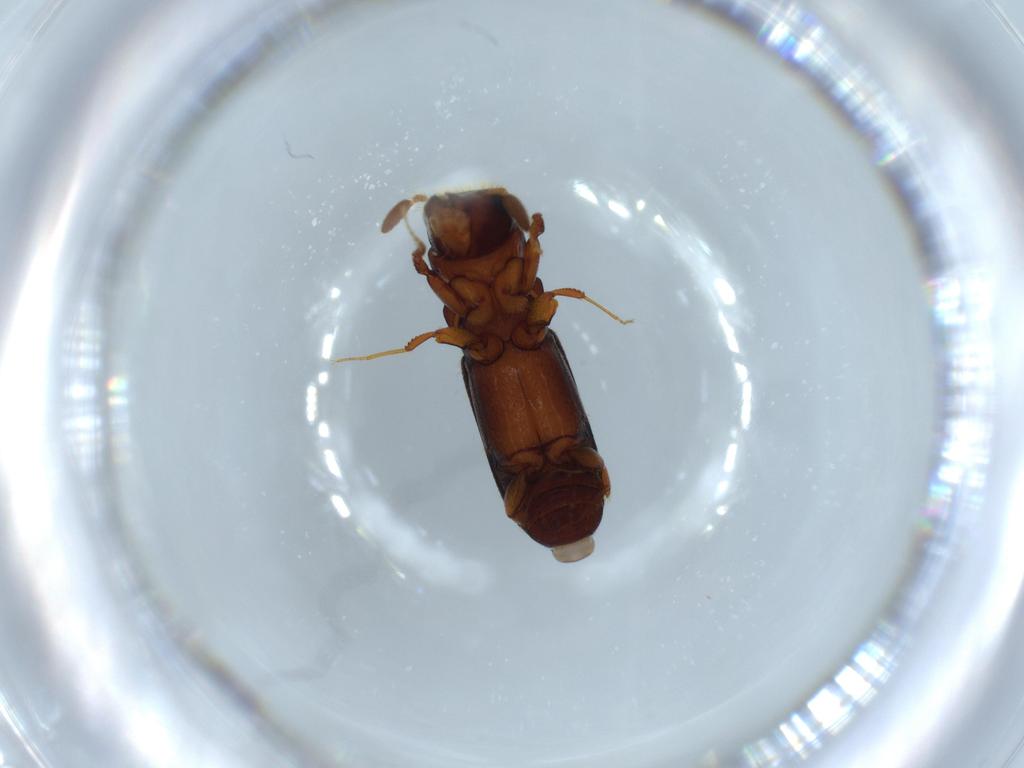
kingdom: Animalia
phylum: Arthropoda
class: Insecta
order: Coleoptera
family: Curculionidae
